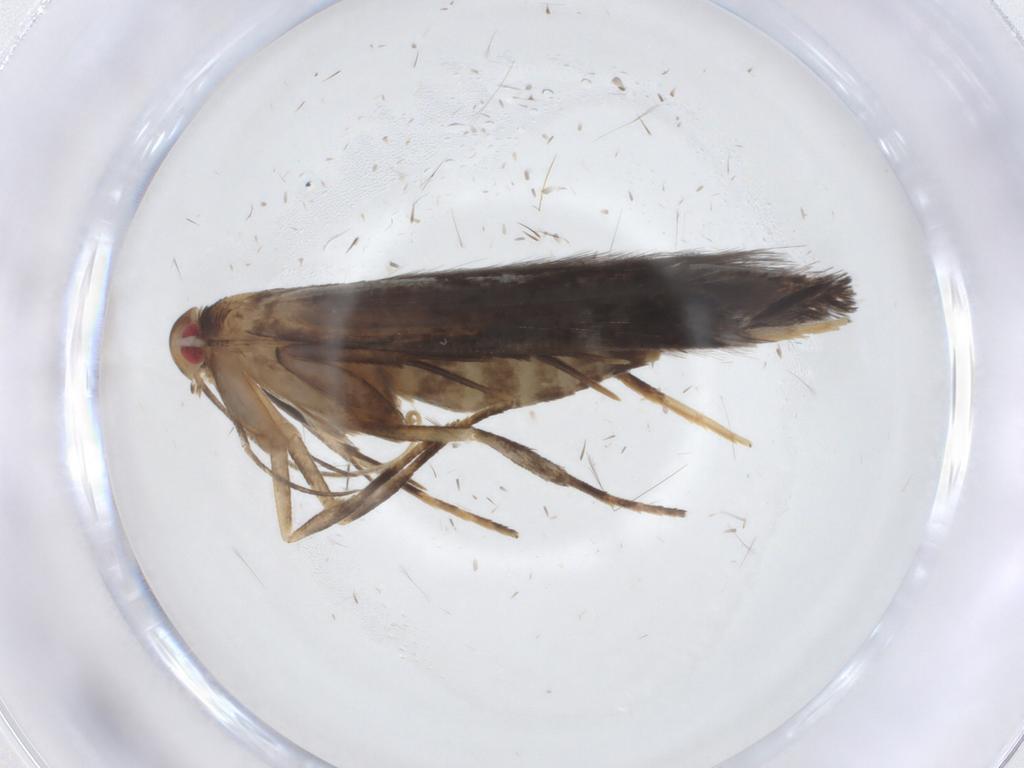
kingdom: Animalia
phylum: Arthropoda
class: Insecta
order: Lepidoptera
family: Cosmopterigidae
